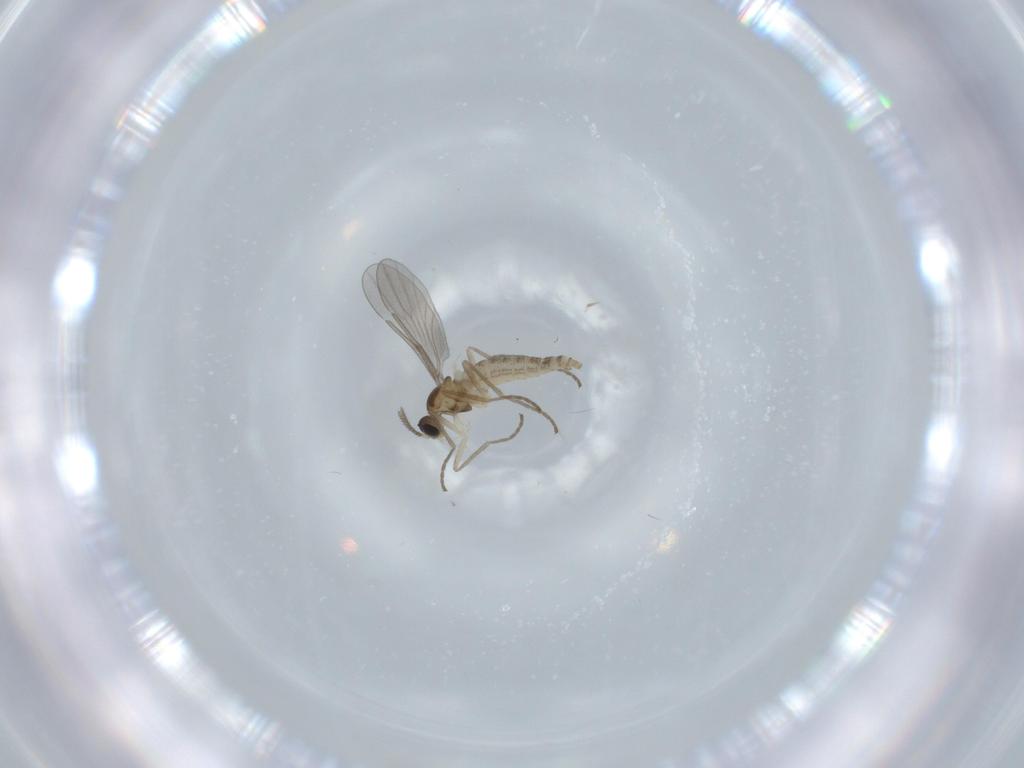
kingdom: Animalia
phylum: Arthropoda
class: Insecta
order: Diptera
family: Cecidomyiidae
